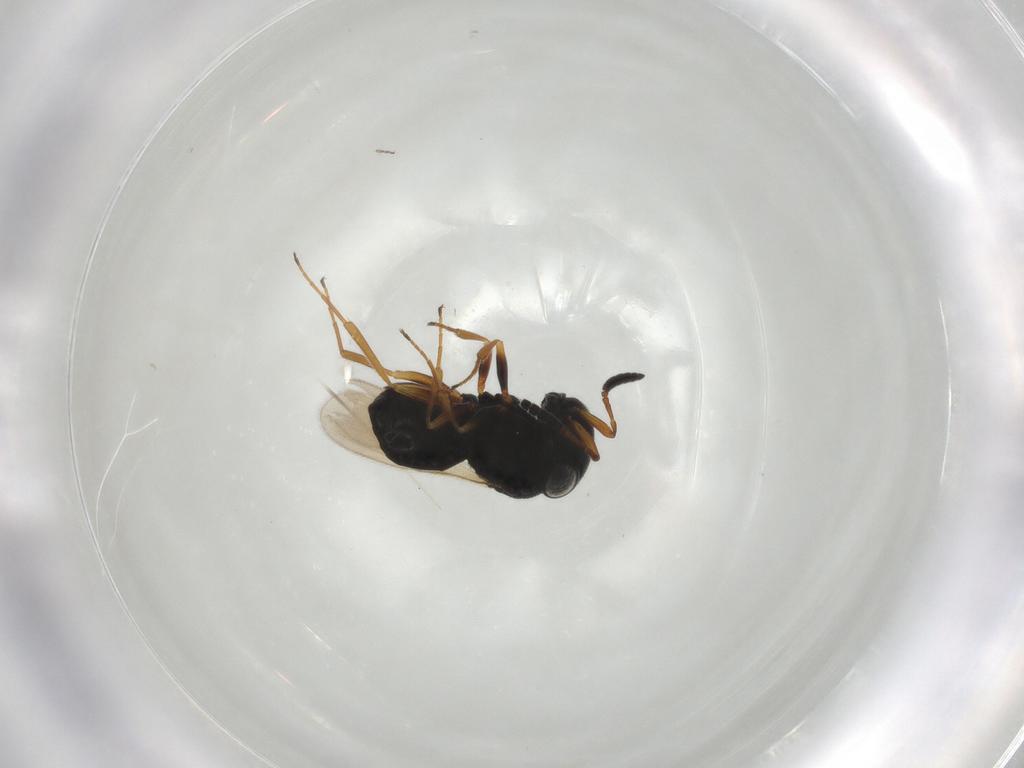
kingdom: Animalia
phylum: Arthropoda
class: Insecta
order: Hymenoptera
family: Scelionidae
